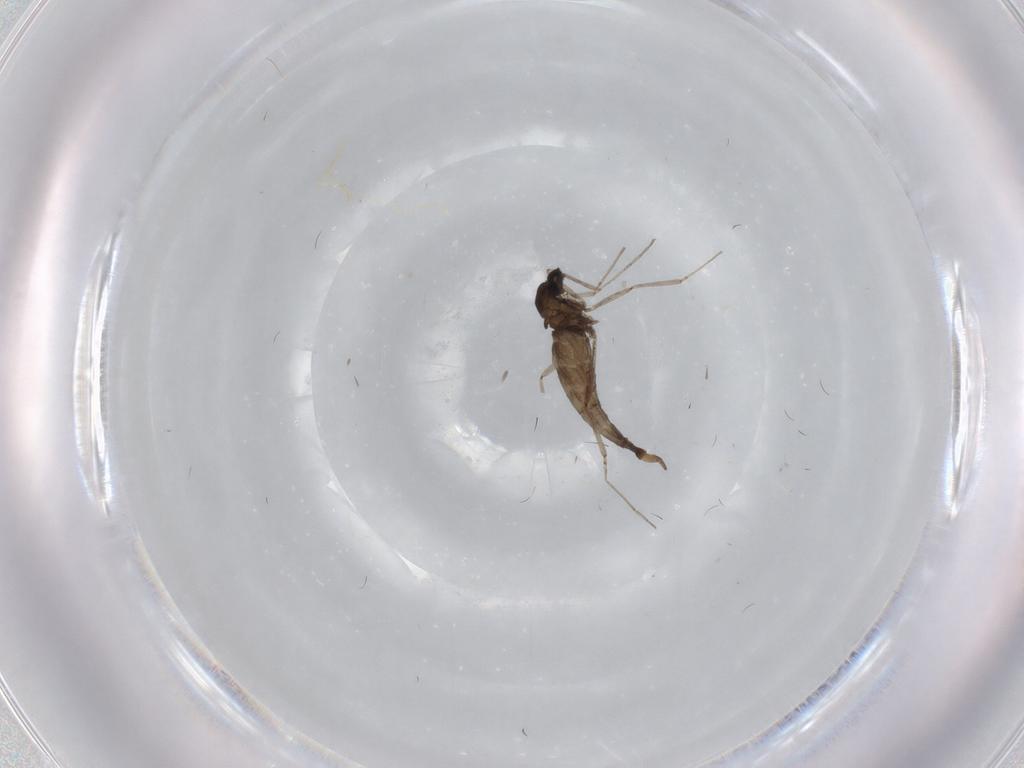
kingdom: Animalia
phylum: Arthropoda
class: Insecta
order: Diptera
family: Cecidomyiidae
